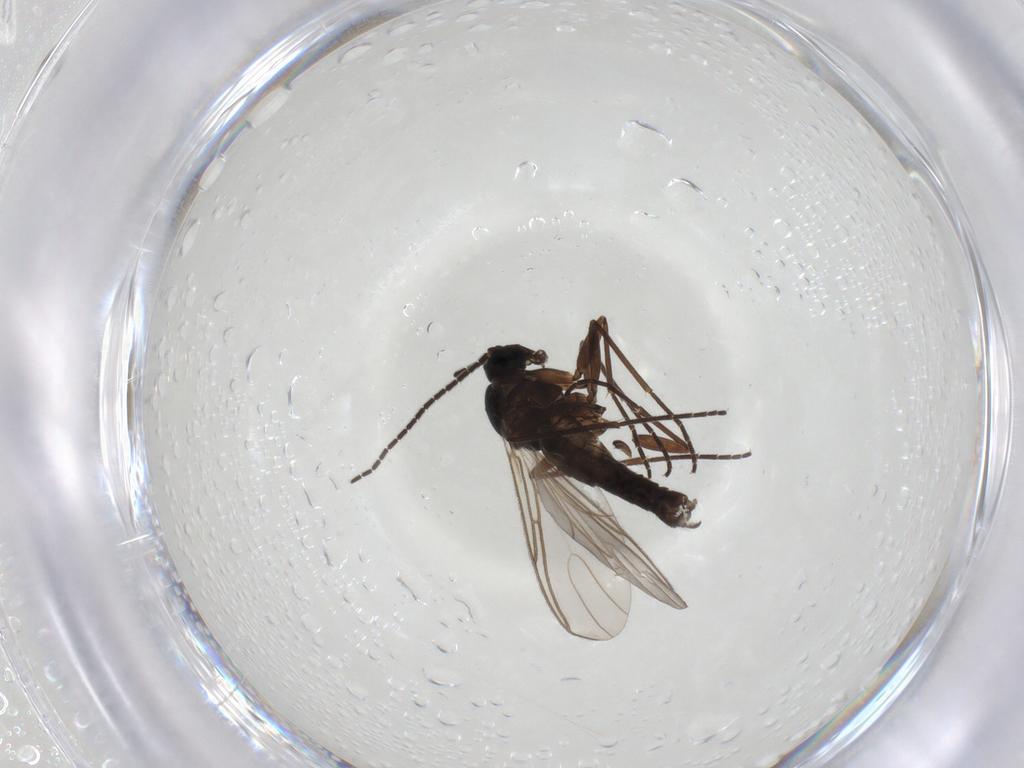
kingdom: Animalia
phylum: Arthropoda
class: Insecta
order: Diptera
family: Sciaridae
